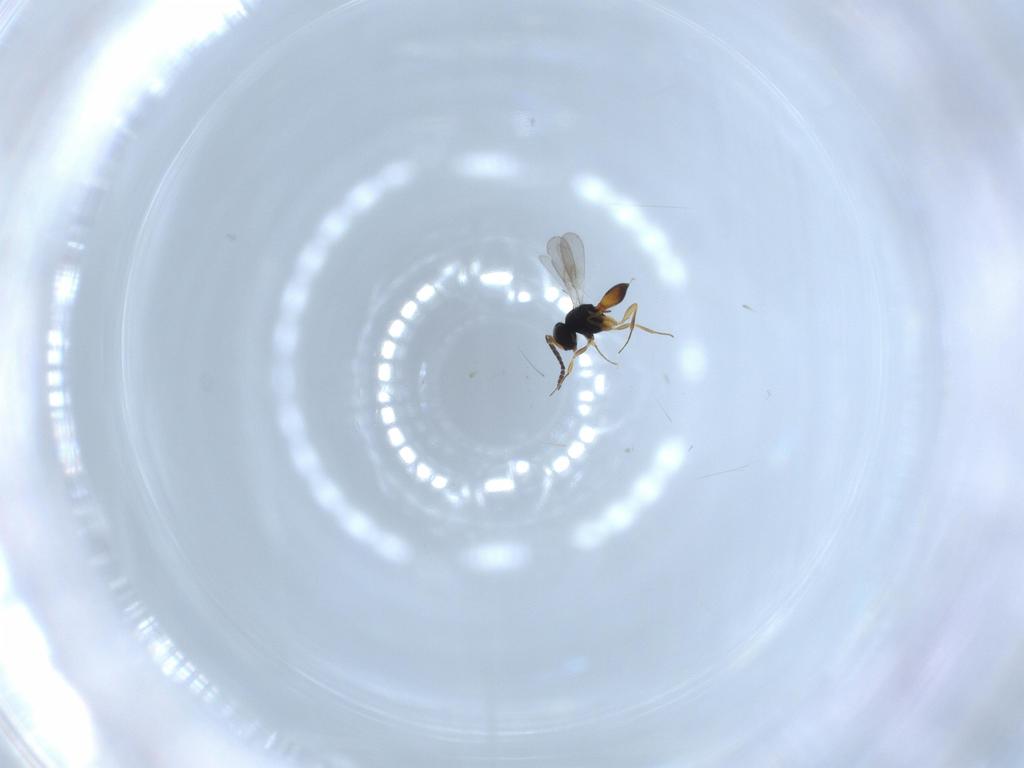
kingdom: Animalia
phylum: Arthropoda
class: Insecta
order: Hymenoptera
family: Scelionidae
